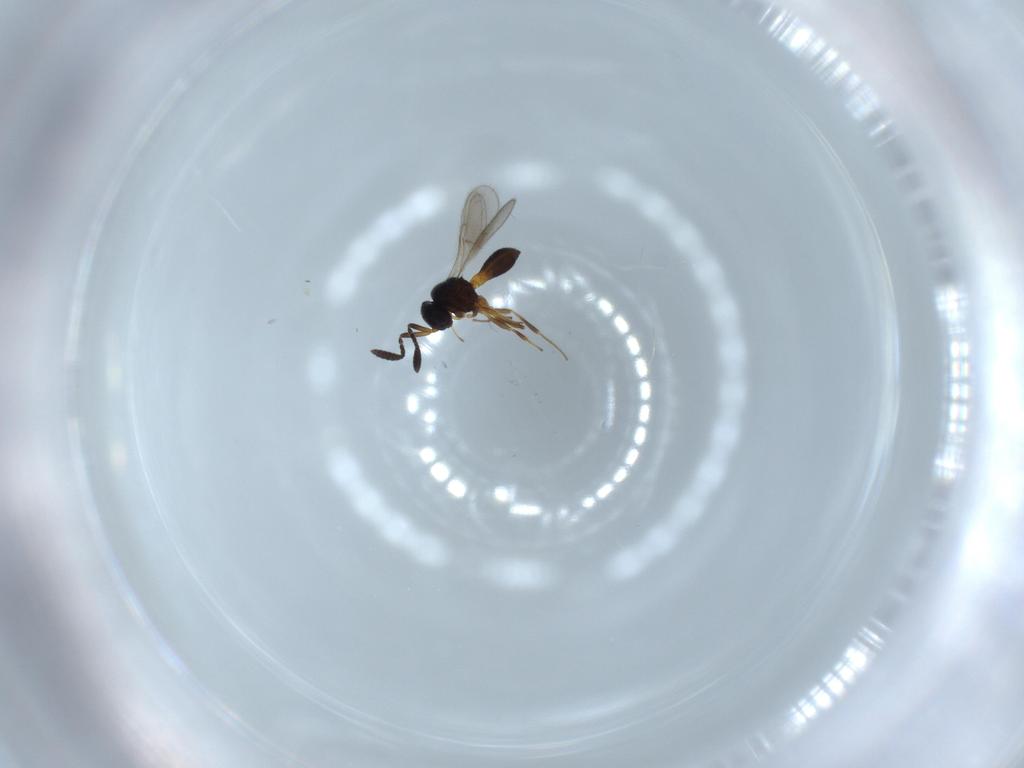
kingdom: Animalia
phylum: Arthropoda
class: Insecta
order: Hymenoptera
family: Scelionidae
